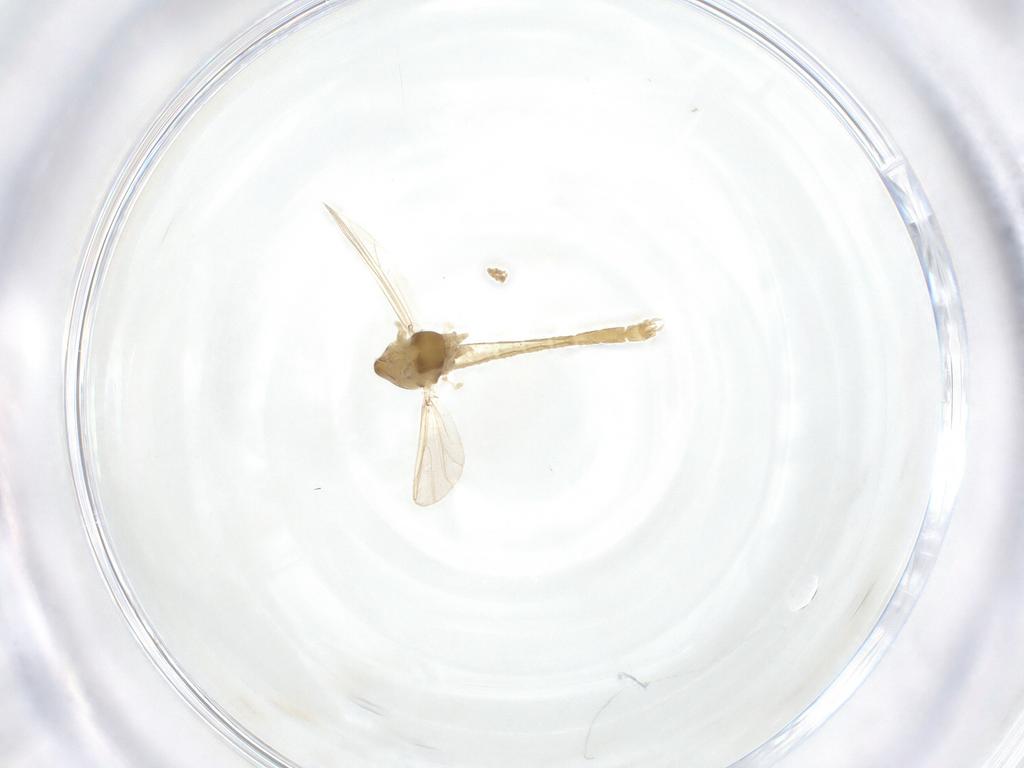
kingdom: Animalia
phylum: Arthropoda
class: Insecta
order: Diptera
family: Chironomidae
